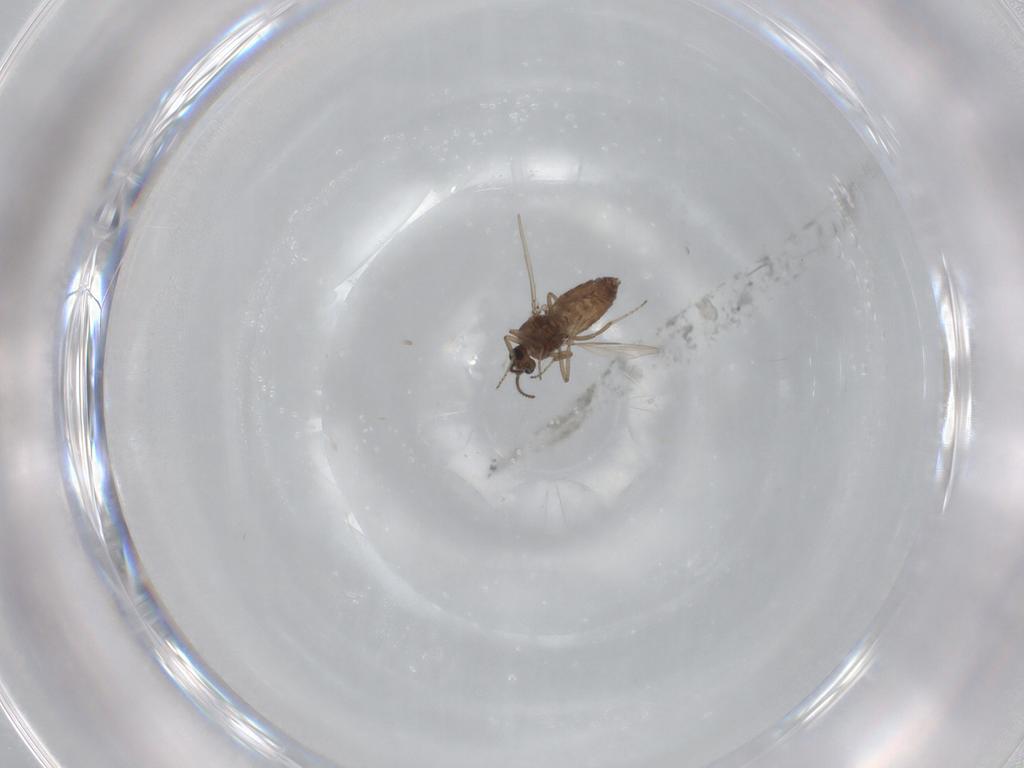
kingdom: Animalia
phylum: Arthropoda
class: Insecta
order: Diptera
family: Ceratopogonidae
